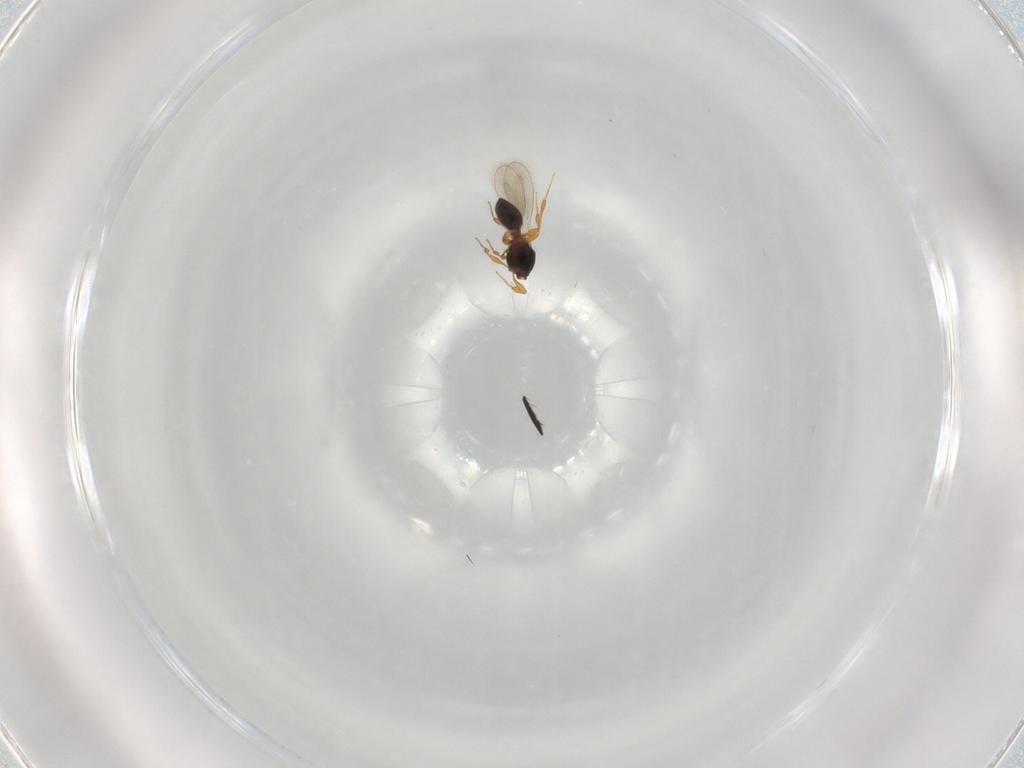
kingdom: Animalia
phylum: Arthropoda
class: Insecta
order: Hymenoptera
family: Platygastridae
